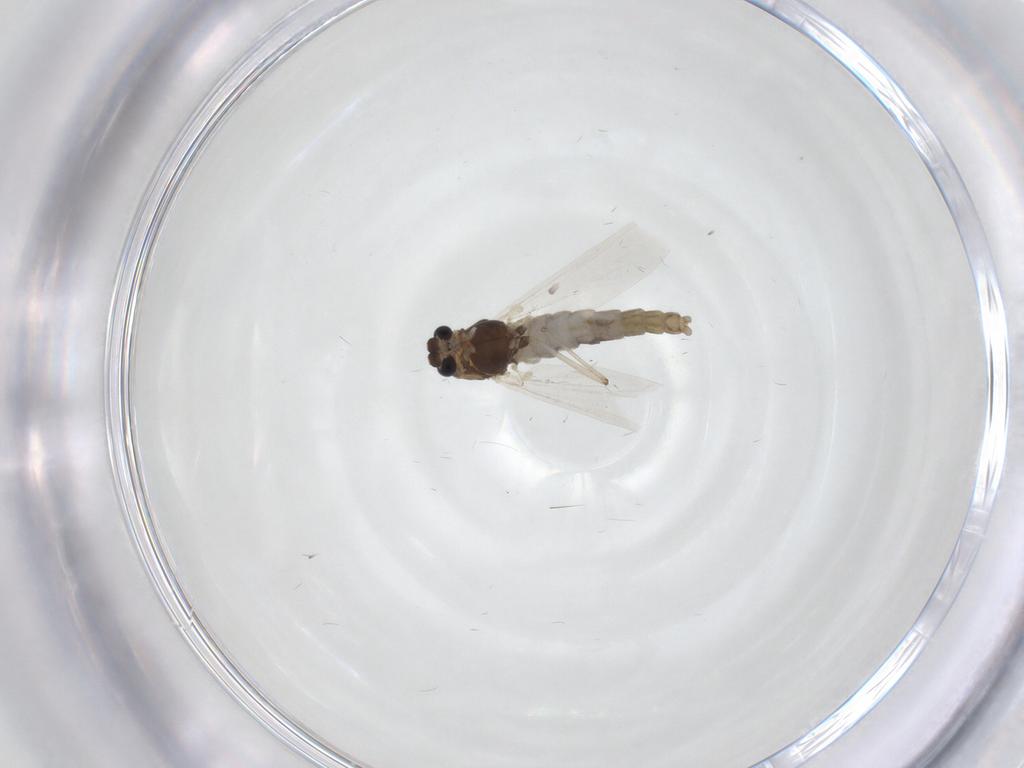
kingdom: Animalia
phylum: Arthropoda
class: Insecta
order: Diptera
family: Chironomidae
